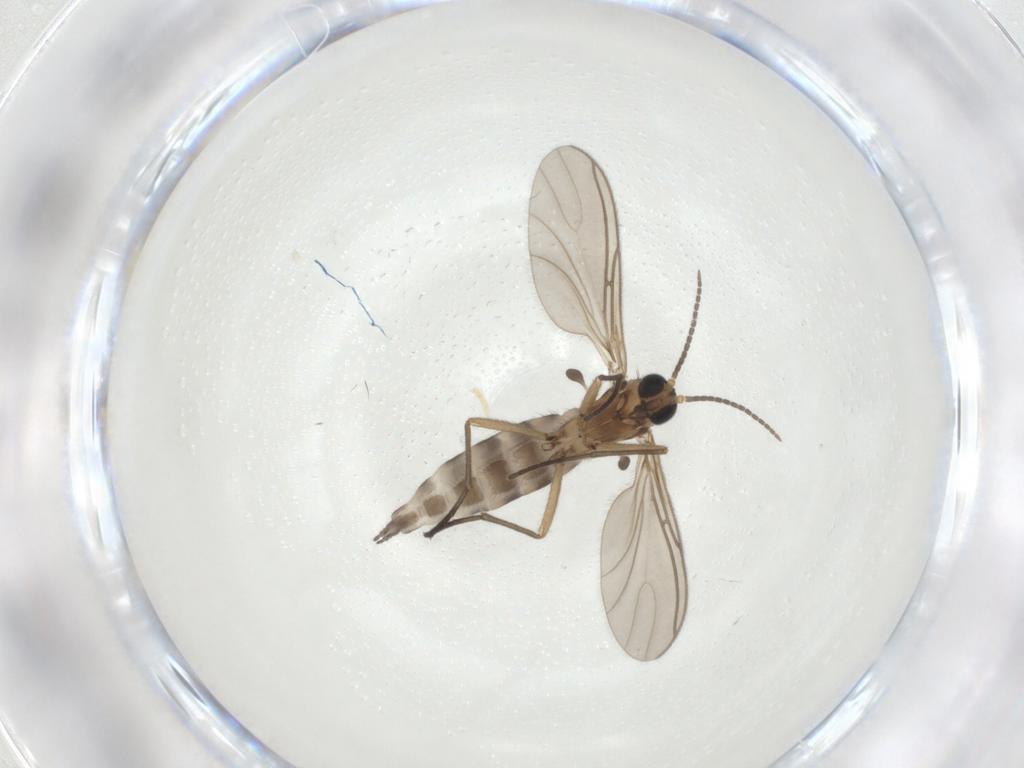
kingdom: Animalia
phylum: Arthropoda
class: Insecta
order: Diptera
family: Sciaridae
